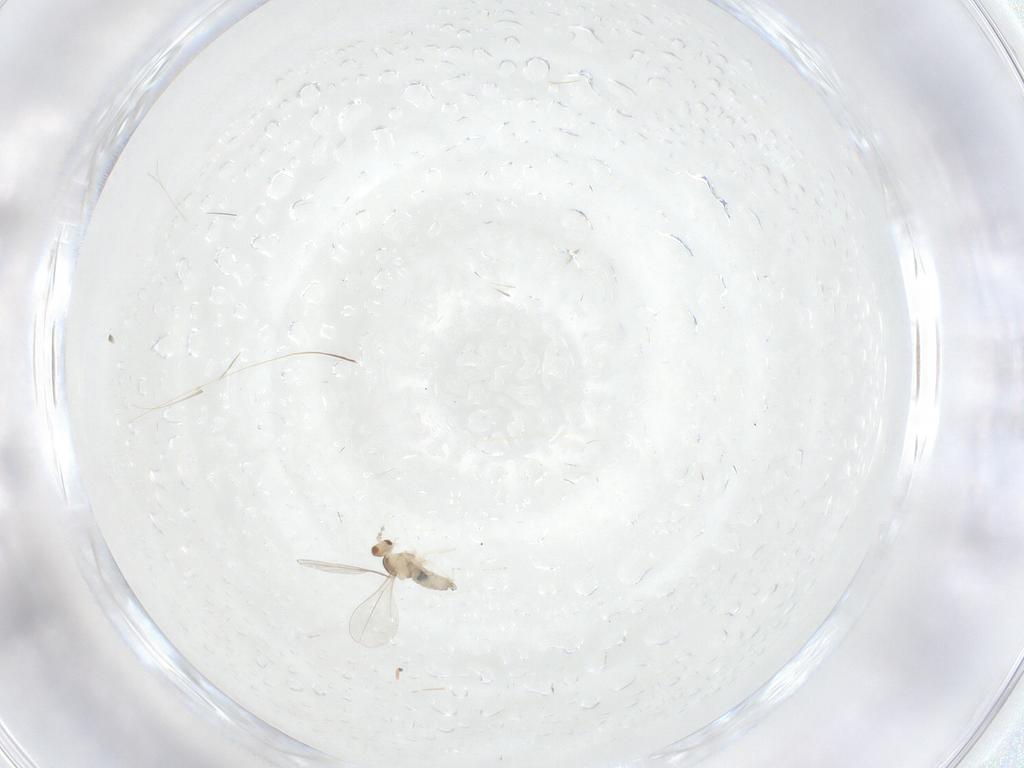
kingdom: Animalia
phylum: Arthropoda
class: Insecta
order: Diptera
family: Cecidomyiidae
